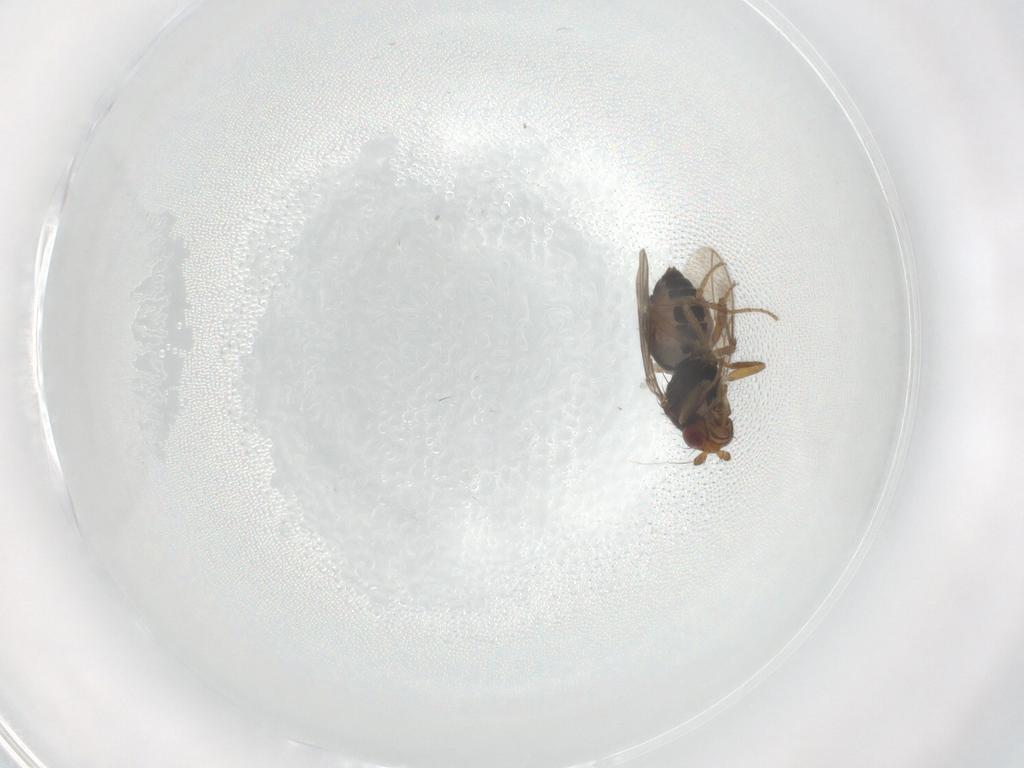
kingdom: Animalia
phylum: Arthropoda
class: Insecta
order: Diptera
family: Sphaeroceridae
